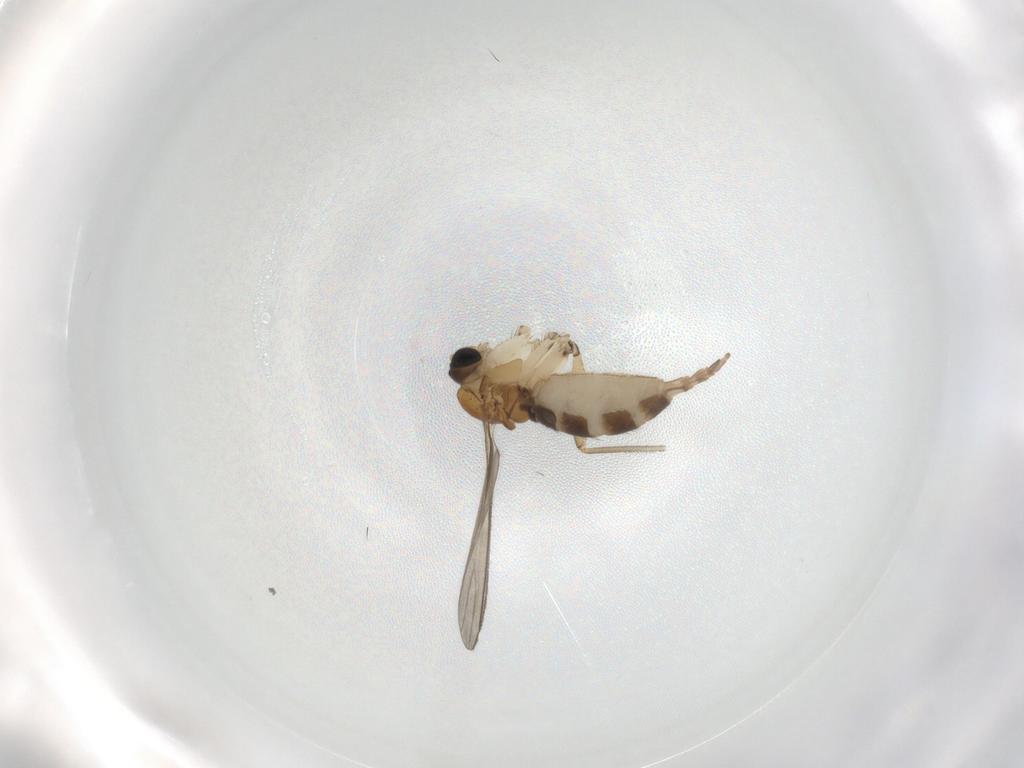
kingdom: Animalia
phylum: Arthropoda
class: Insecta
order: Diptera
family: Sciaridae
